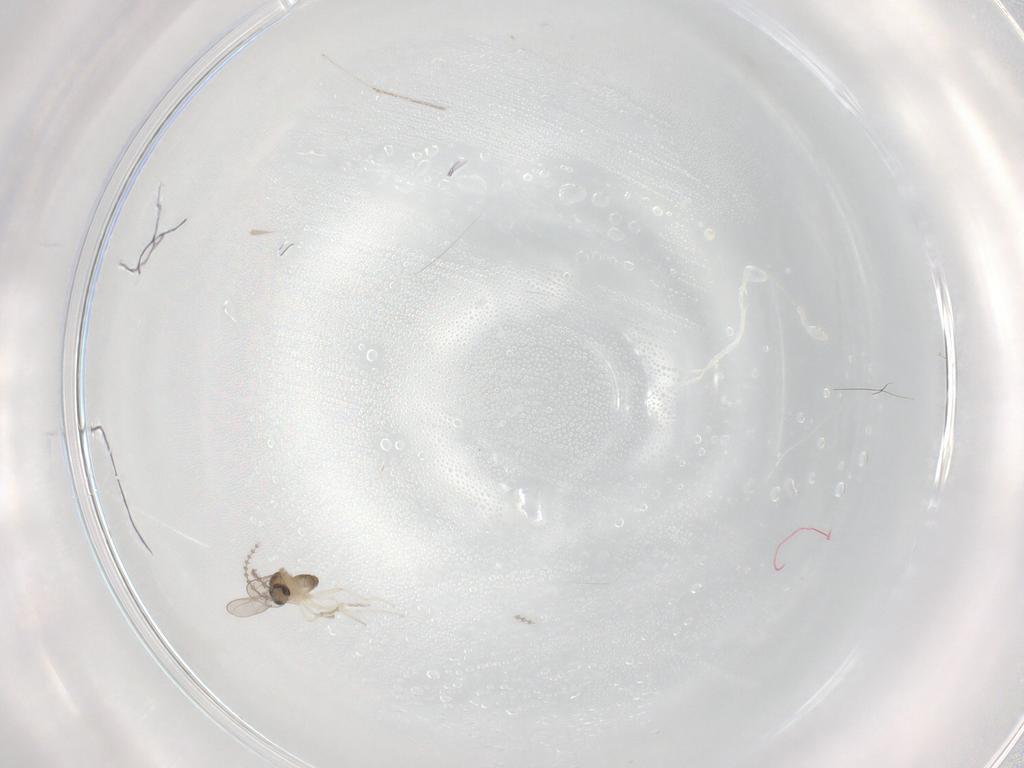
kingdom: Animalia
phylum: Arthropoda
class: Insecta
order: Diptera
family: Cecidomyiidae
